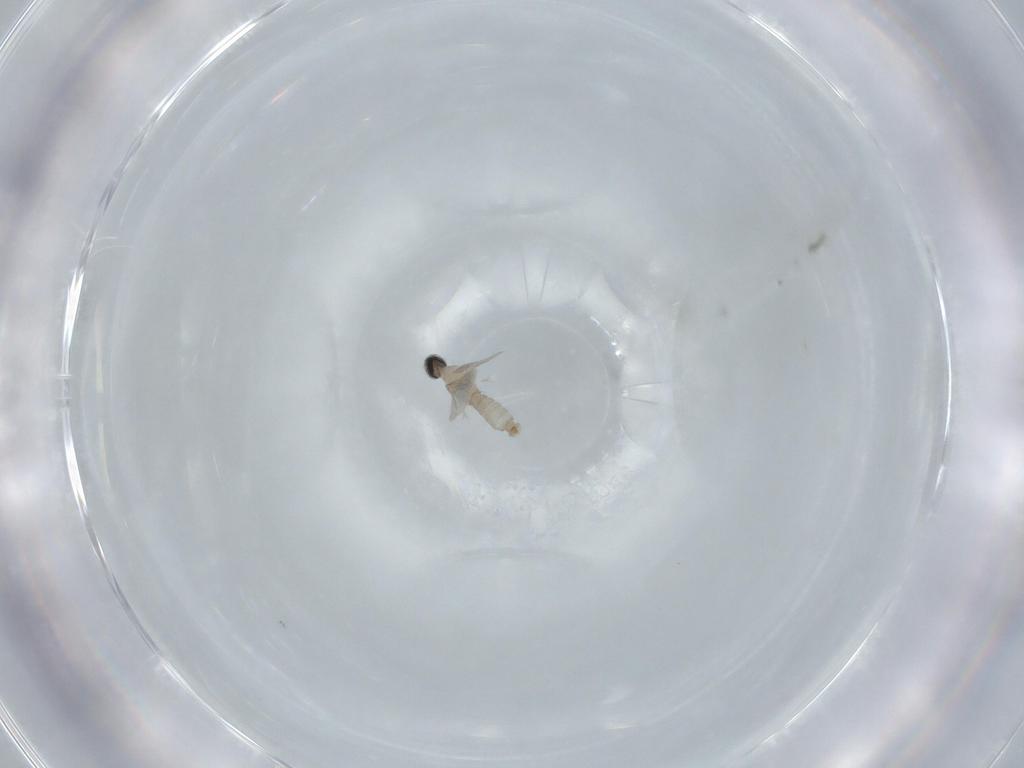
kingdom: Animalia
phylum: Arthropoda
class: Insecta
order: Diptera
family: Cecidomyiidae
